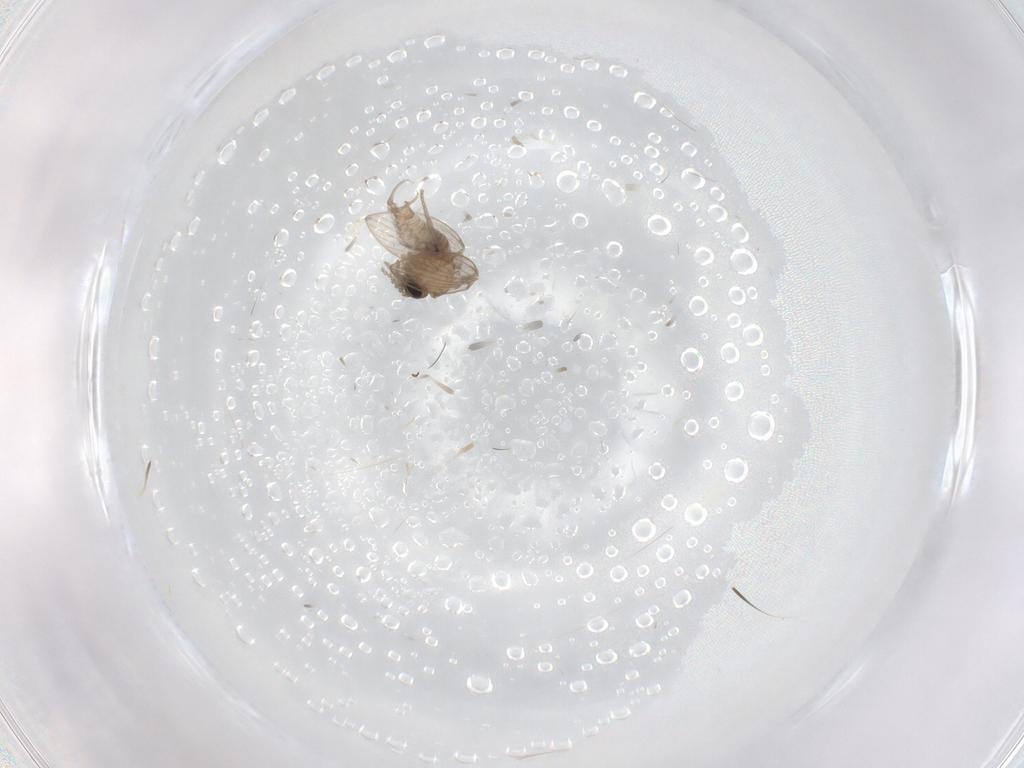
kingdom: Animalia
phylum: Arthropoda
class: Insecta
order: Diptera
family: Psychodidae
